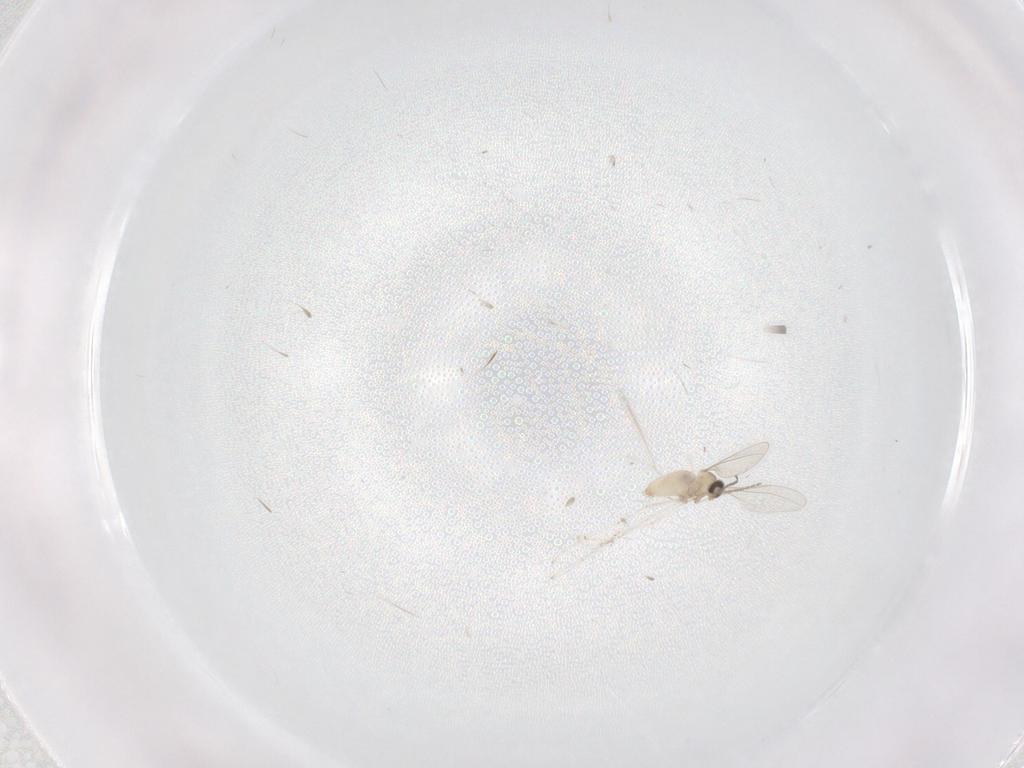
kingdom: Animalia
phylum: Arthropoda
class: Insecta
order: Diptera
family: Cecidomyiidae
